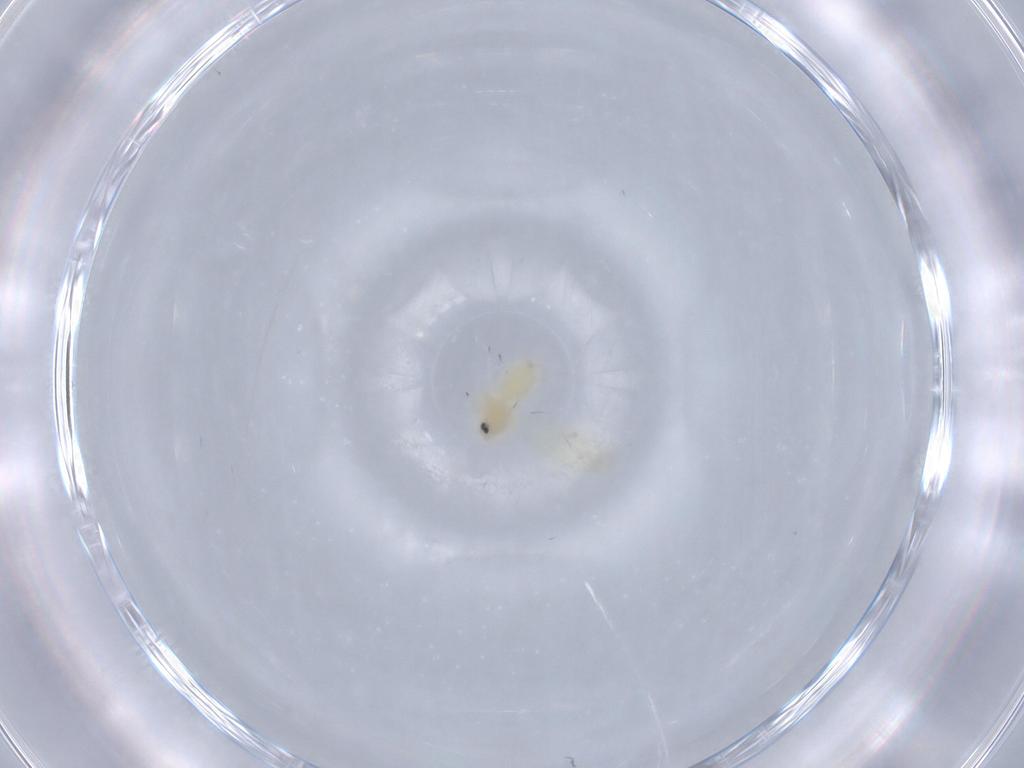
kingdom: Animalia
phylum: Arthropoda
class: Insecta
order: Hemiptera
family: Aleyrodidae
